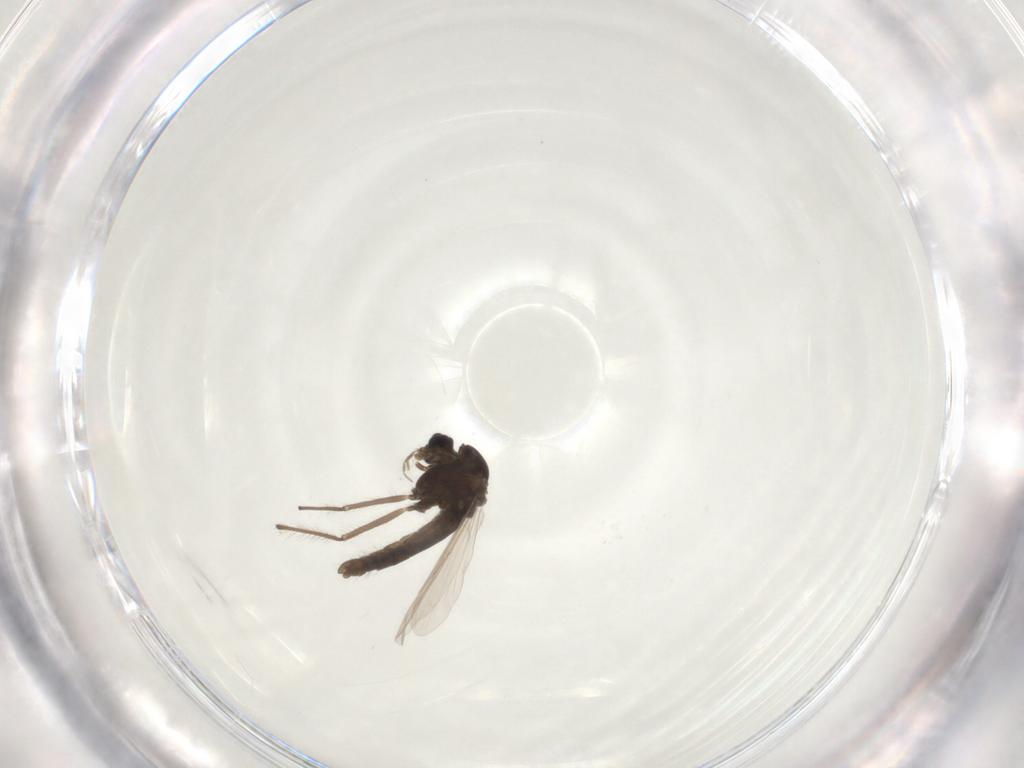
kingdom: Animalia
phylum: Arthropoda
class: Insecta
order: Diptera
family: Chironomidae
